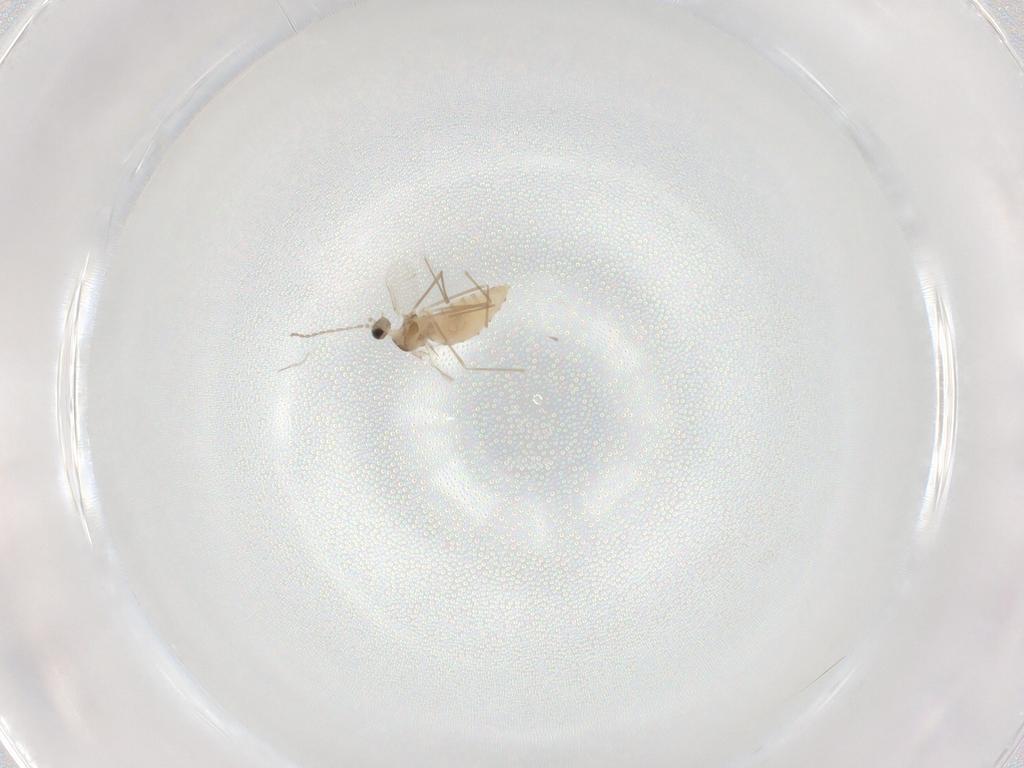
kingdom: Animalia
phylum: Arthropoda
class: Insecta
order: Diptera
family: Cecidomyiidae
